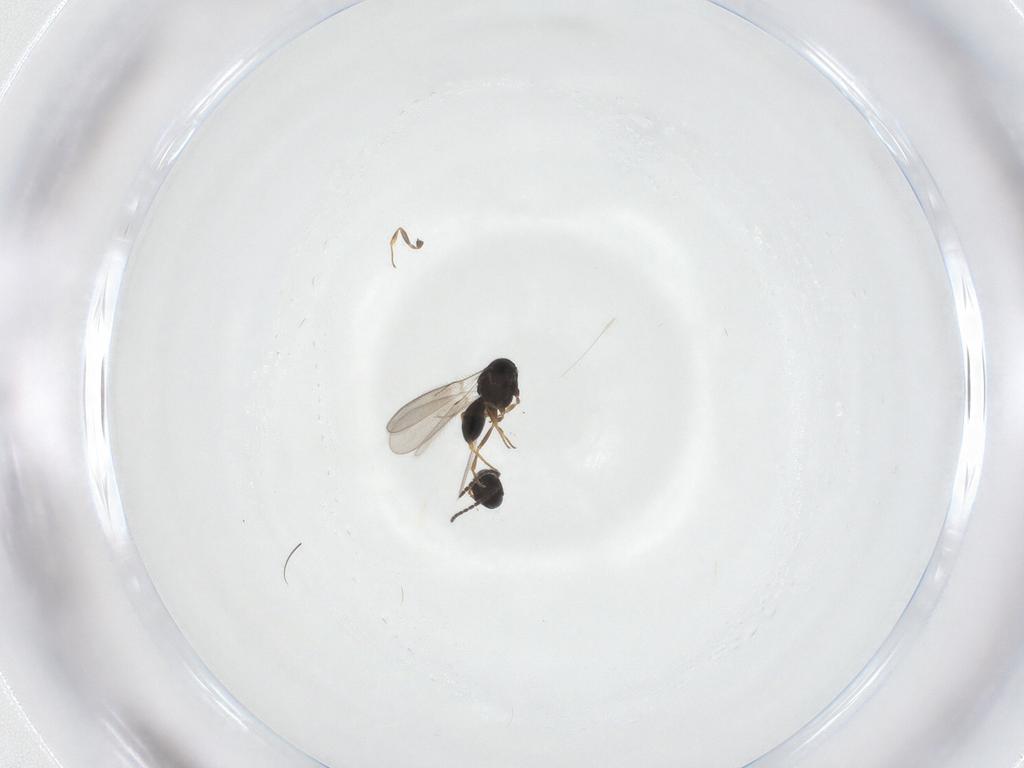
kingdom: Animalia
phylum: Arthropoda
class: Insecta
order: Hymenoptera
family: Scelionidae
